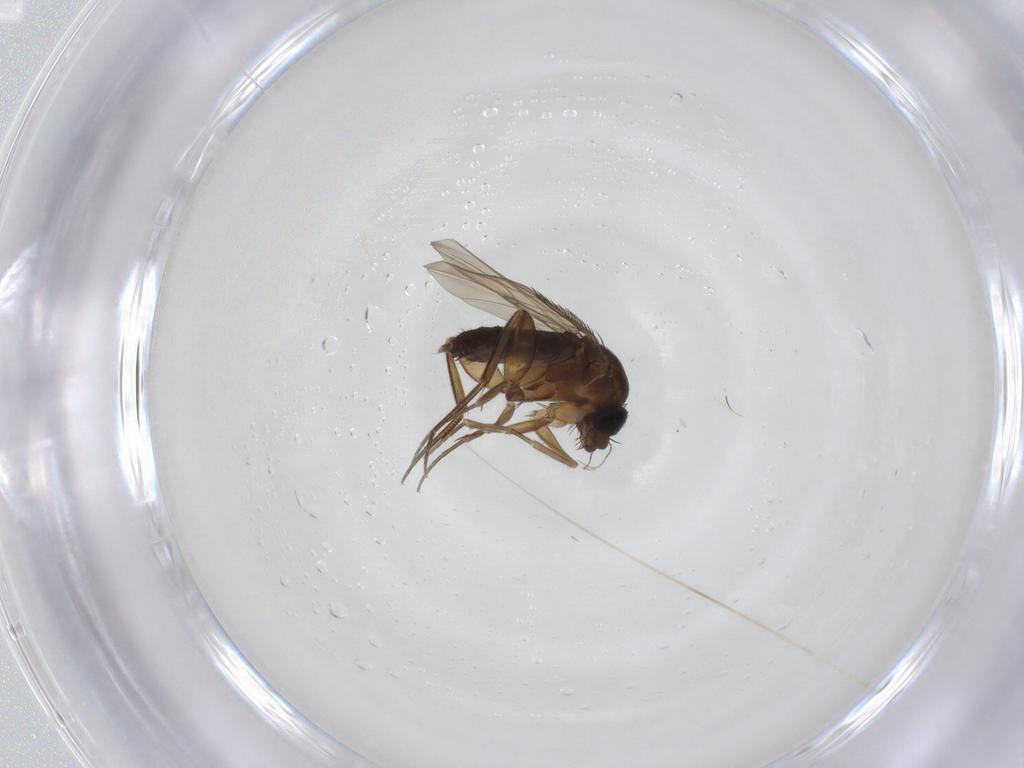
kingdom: Animalia
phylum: Arthropoda
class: Insecta
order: Diptera
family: Phoridae
